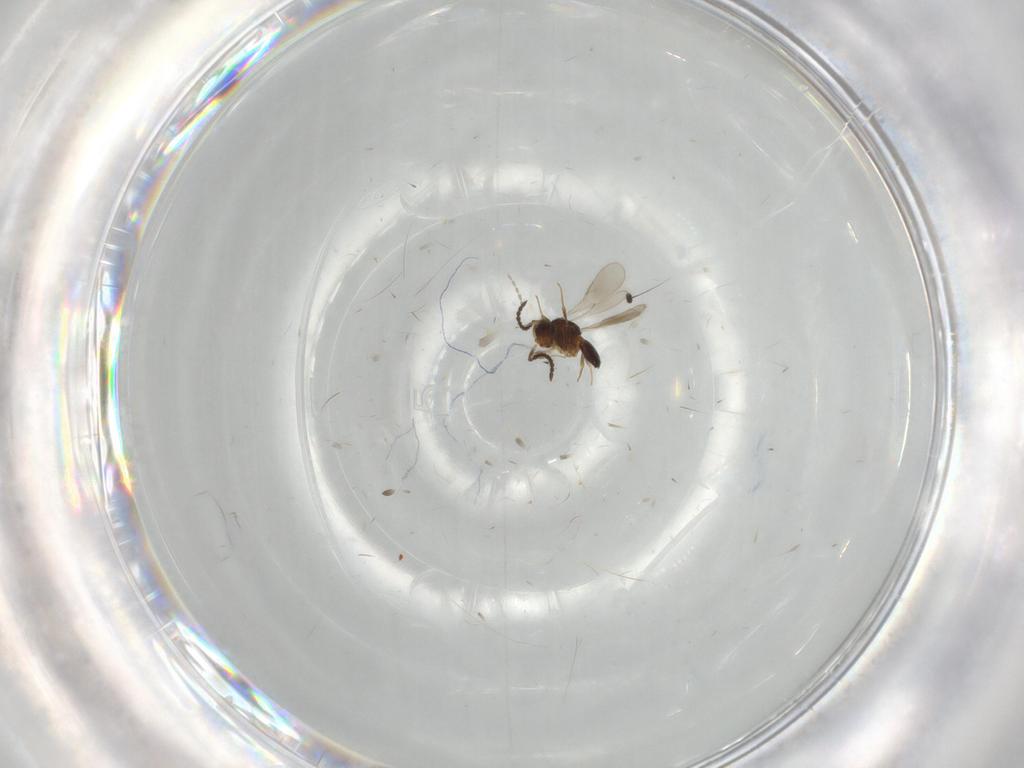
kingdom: Animalia
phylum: Arthropoda
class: Insecta
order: Hymenoptera
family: Scelionidae
